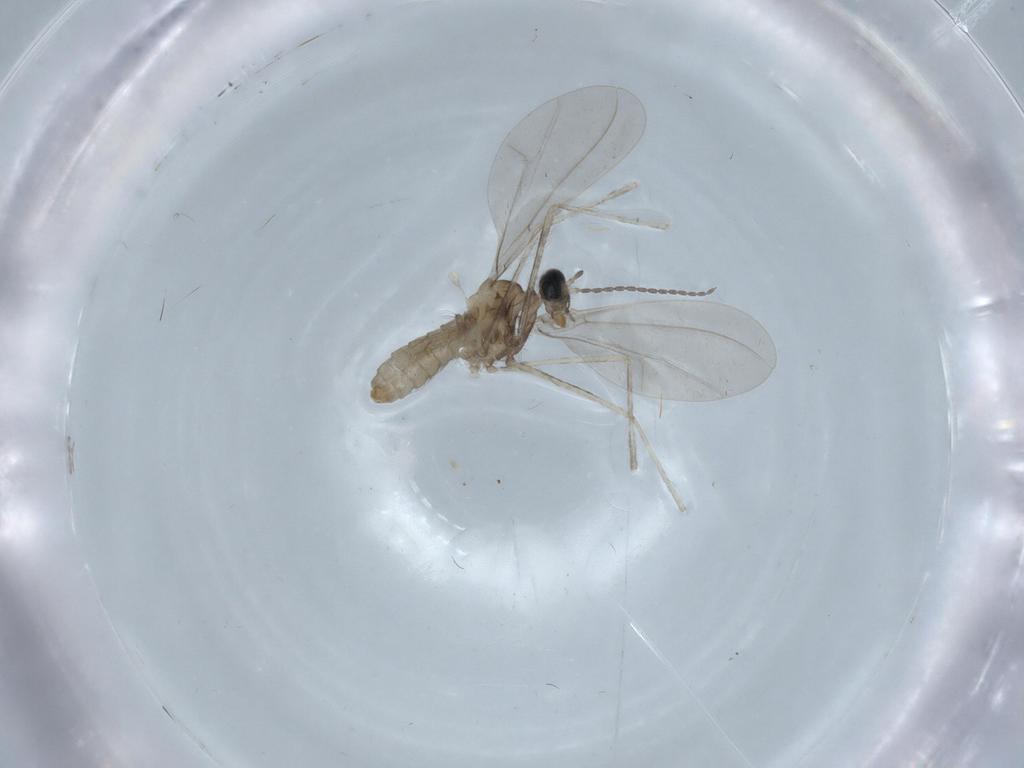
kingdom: Animalia
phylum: Arthropoda
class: Insecta
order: Diptera
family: Cecidomyiidae
